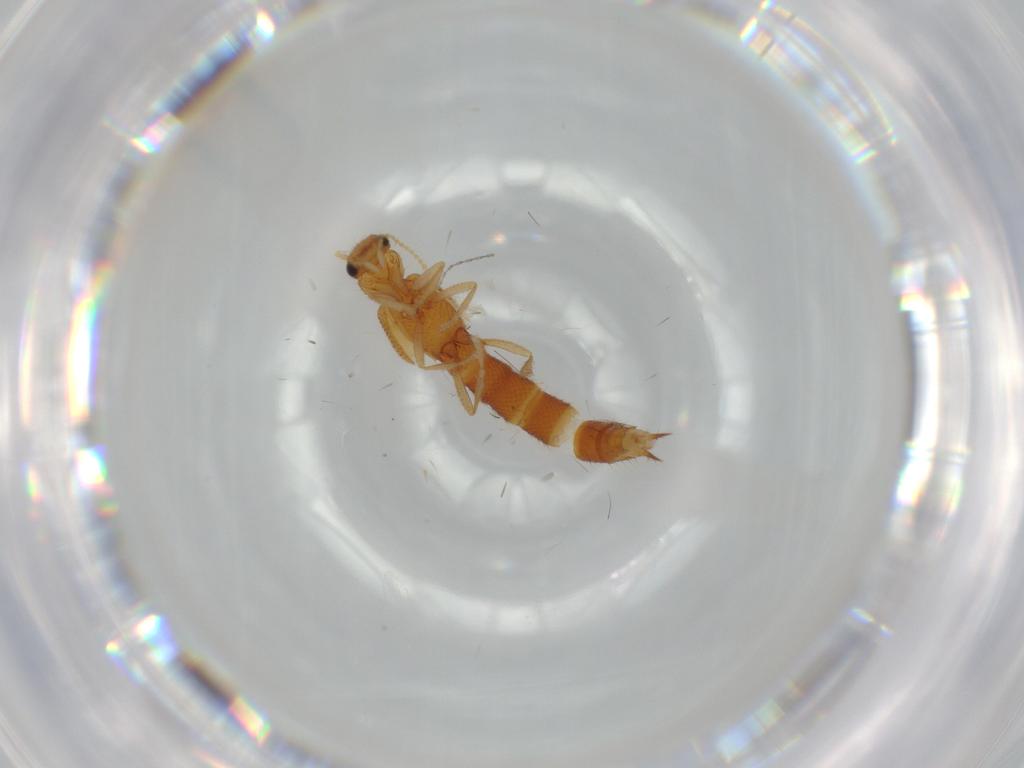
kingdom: Animalia
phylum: Arthropoda
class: Insecta
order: Coleoptera
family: Staphylinidae
